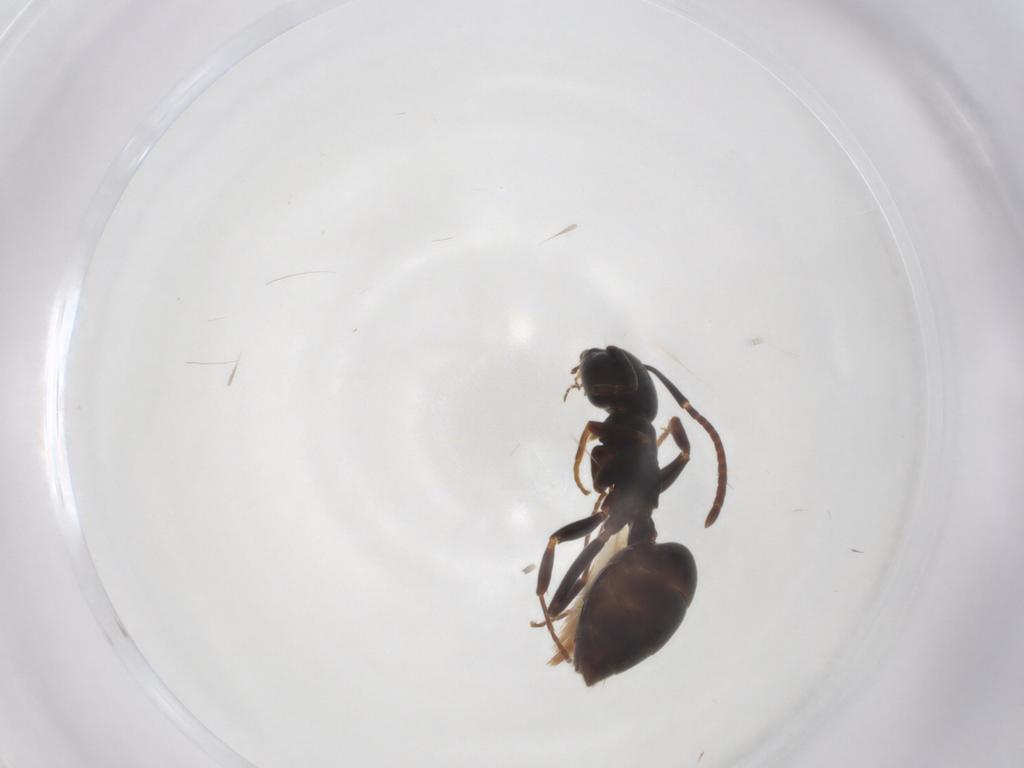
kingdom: Animalia
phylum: Arthropoda
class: Insecta
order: Hymenoptera
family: Formicidae
